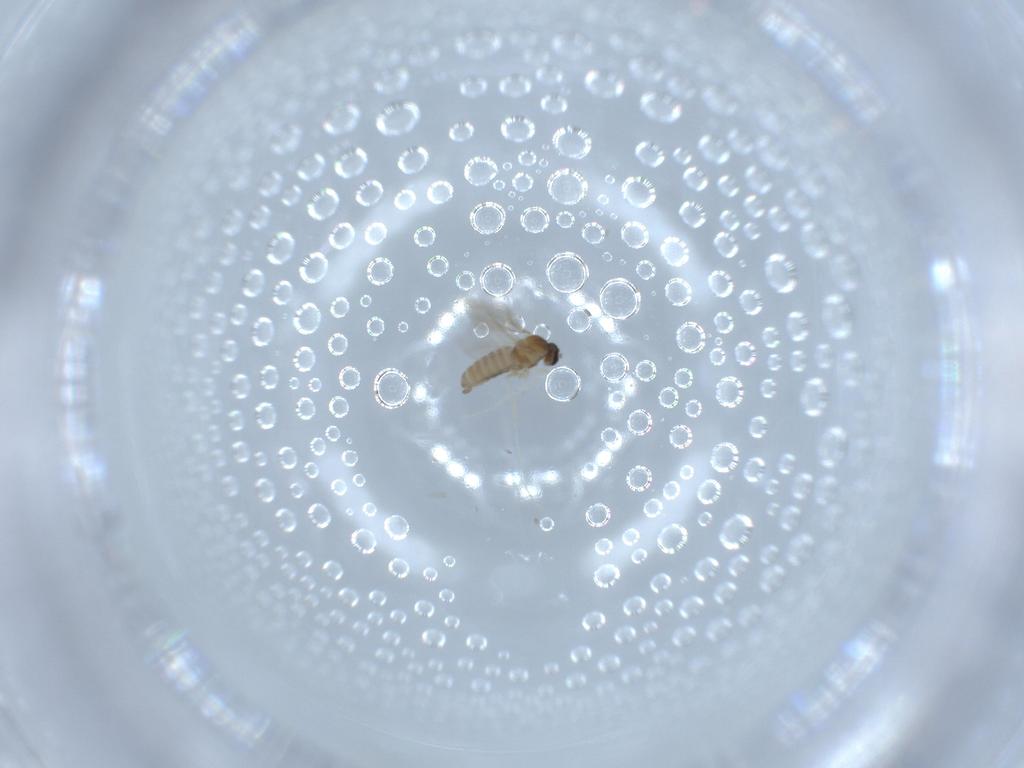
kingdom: Animalia
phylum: Arthropoda
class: Insecta
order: Diptera
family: Cecidomyiidae
